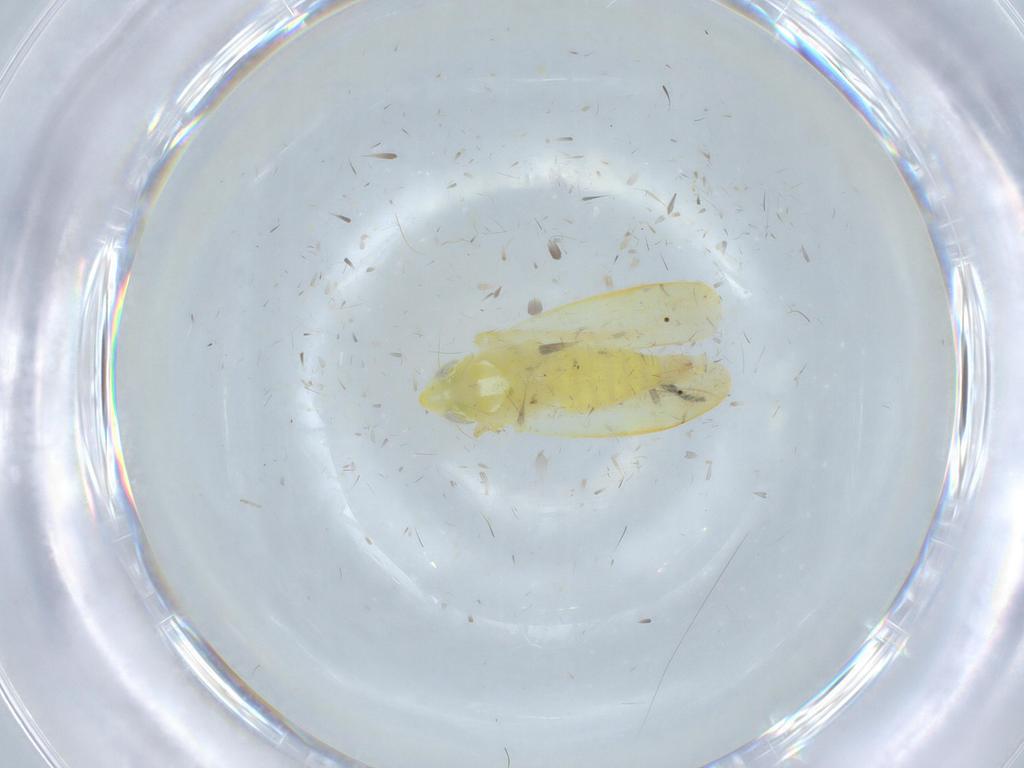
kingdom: Animalia
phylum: Arthropoda
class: Insecta
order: Hemiptera
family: Cicadellidae
